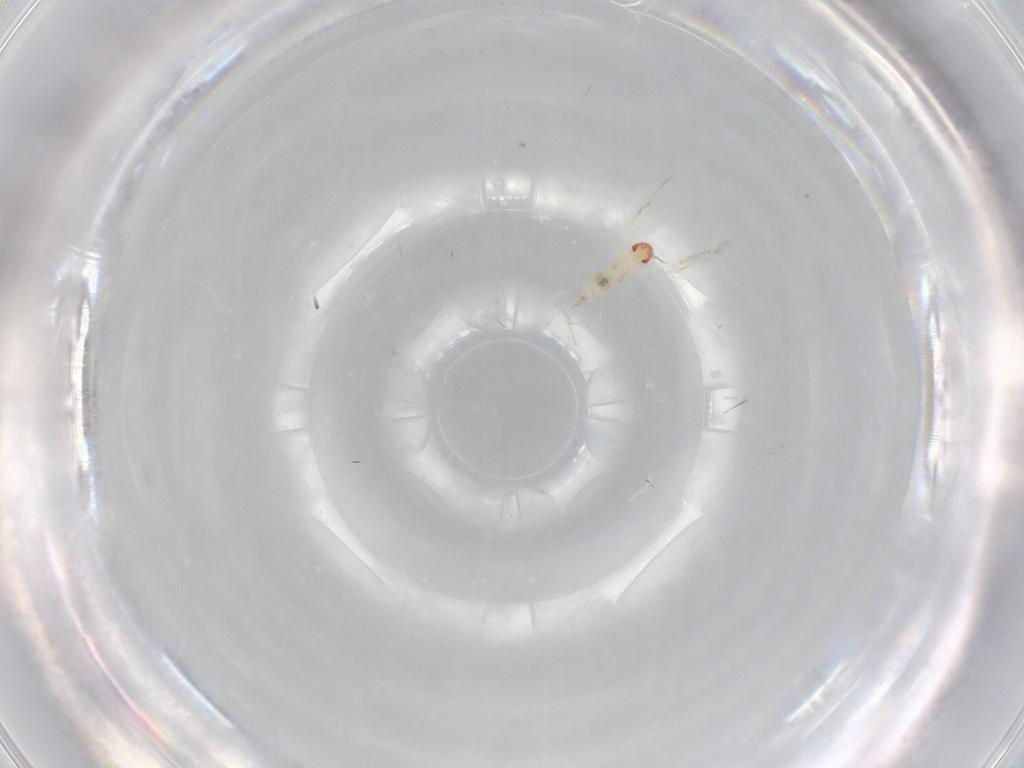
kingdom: Animalia
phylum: Arthropoda
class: Insecta
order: Diptera
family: Cecidomyiidae
